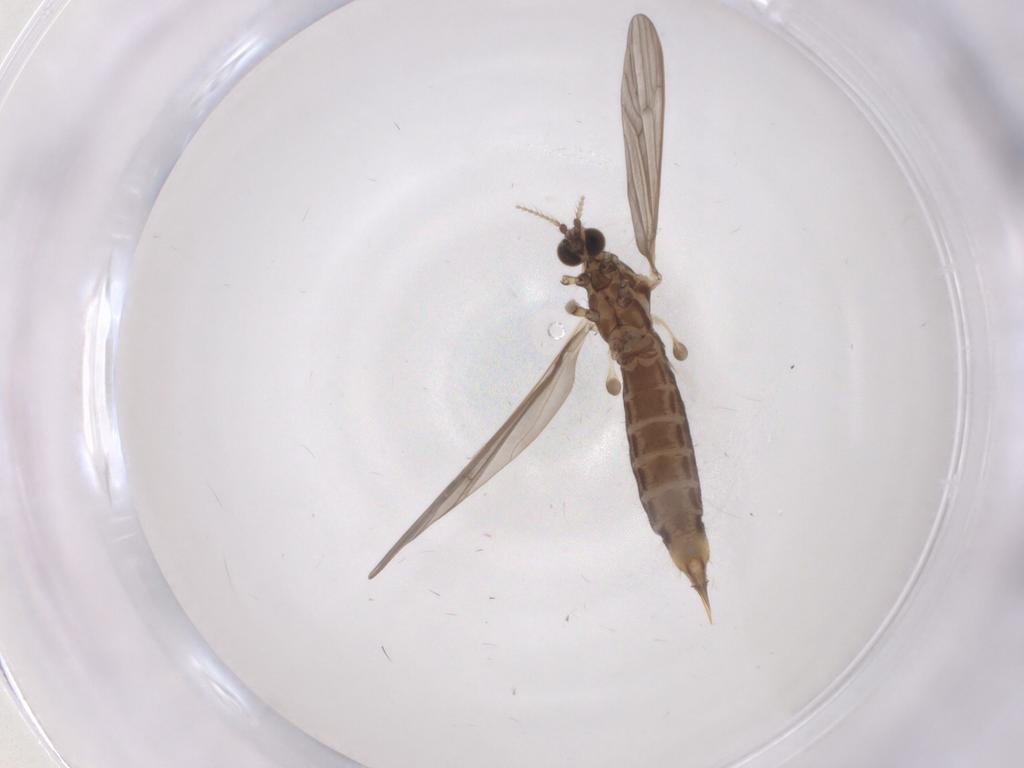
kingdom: Animalia
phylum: Arthropoda
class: Insecta
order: Diptera
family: Limoniidae
